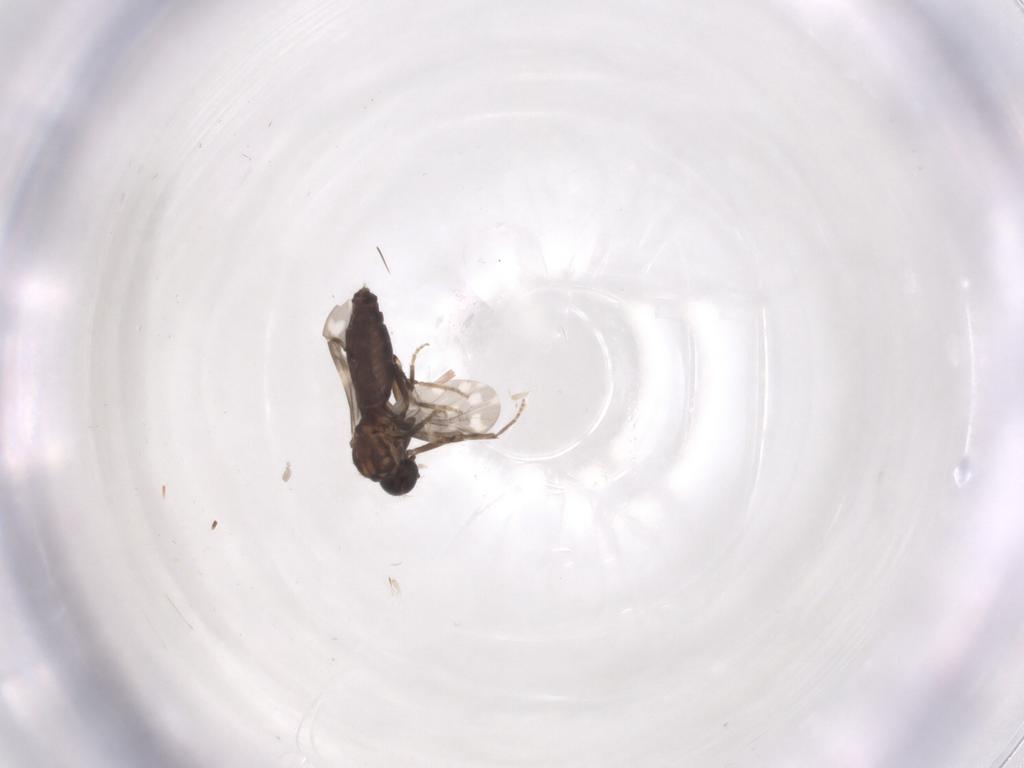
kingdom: Animalia
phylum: Arthropoda
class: Insecta
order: Diptera
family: Ceratopogonidae
